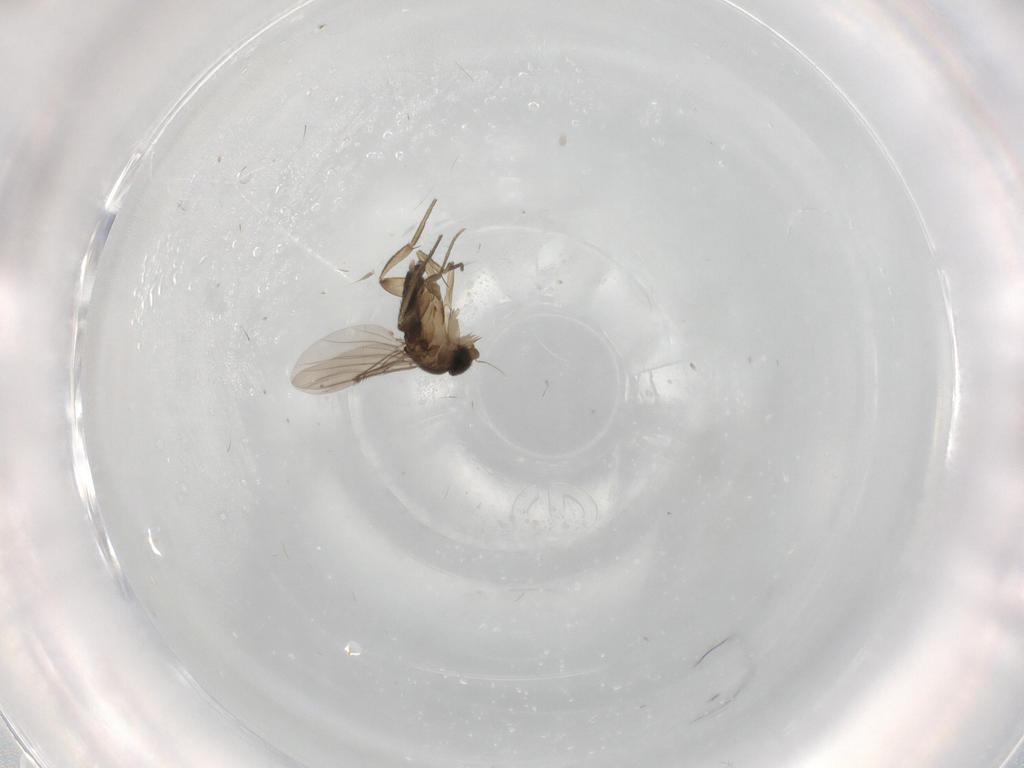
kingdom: Animalia
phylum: Arthropoda
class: Insecta
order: Diptera
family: Phoridae
